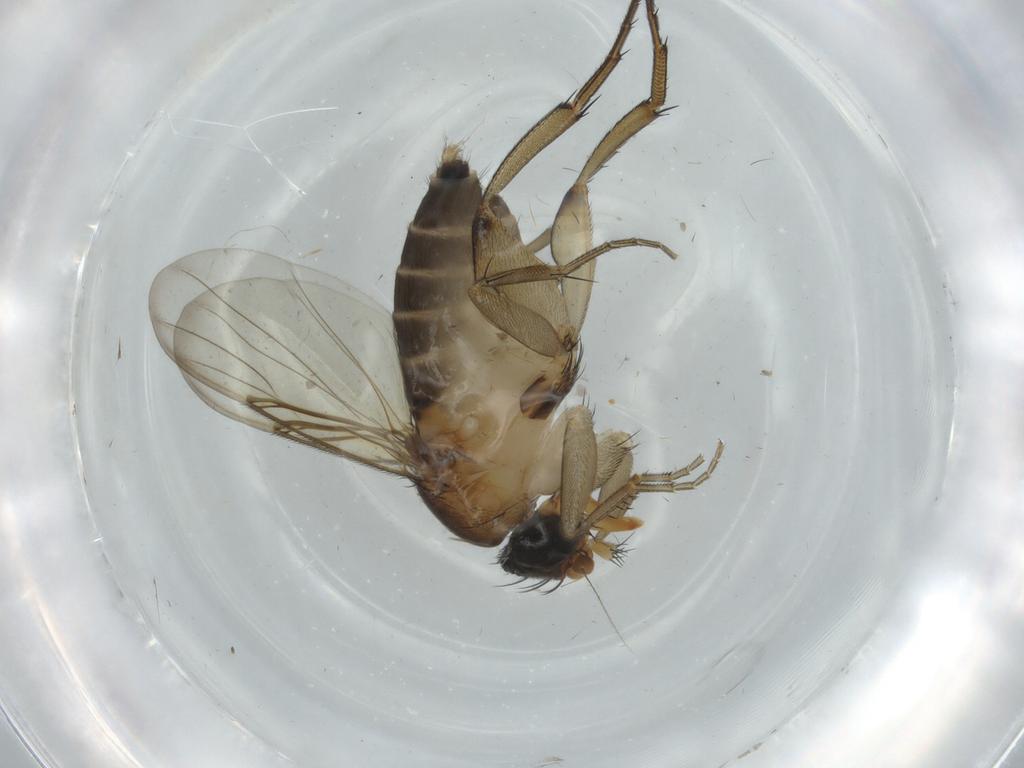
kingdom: Animalia
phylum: Arthropoda
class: Insecta
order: Diptera
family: Phoridae
